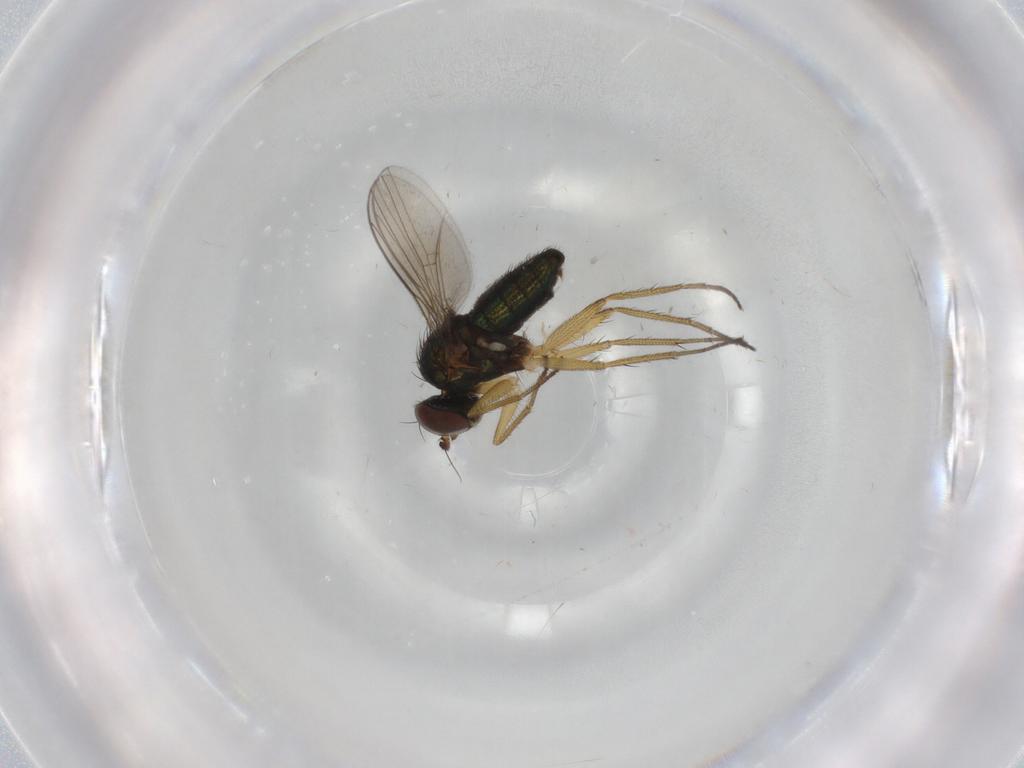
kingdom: Animalia
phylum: Arthropoda
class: Insecta
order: Diptera
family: Dolichopodidae
